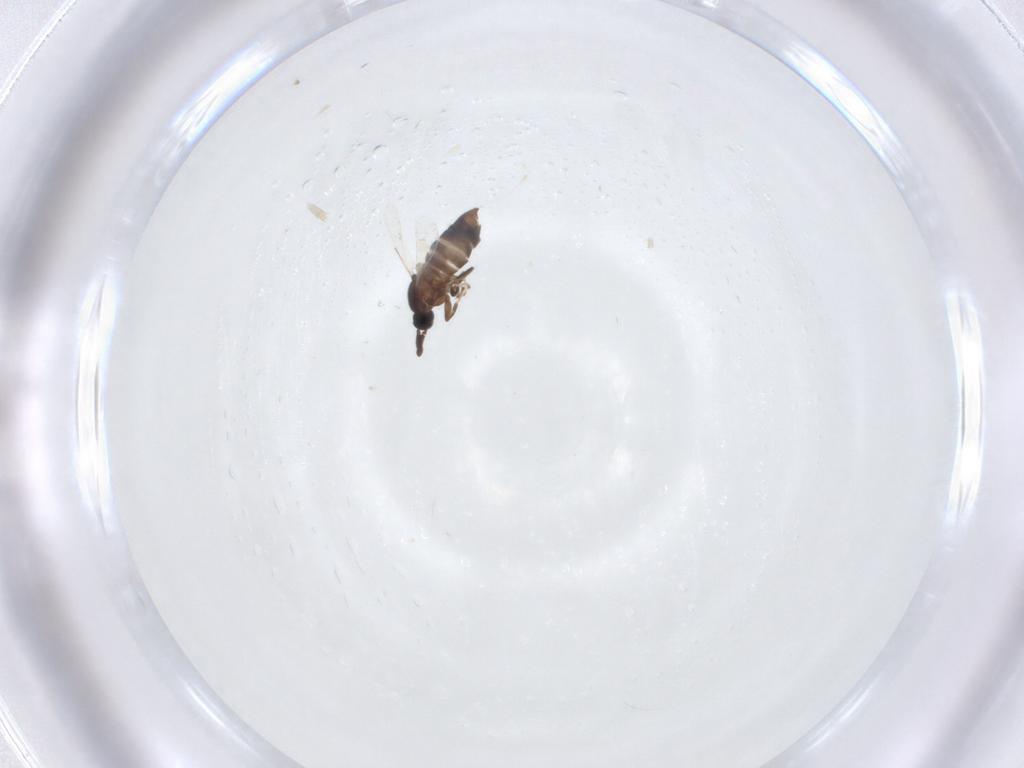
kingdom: Animalia
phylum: Arthropoda
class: Insecta
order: Diptera
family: Scatopsidae
